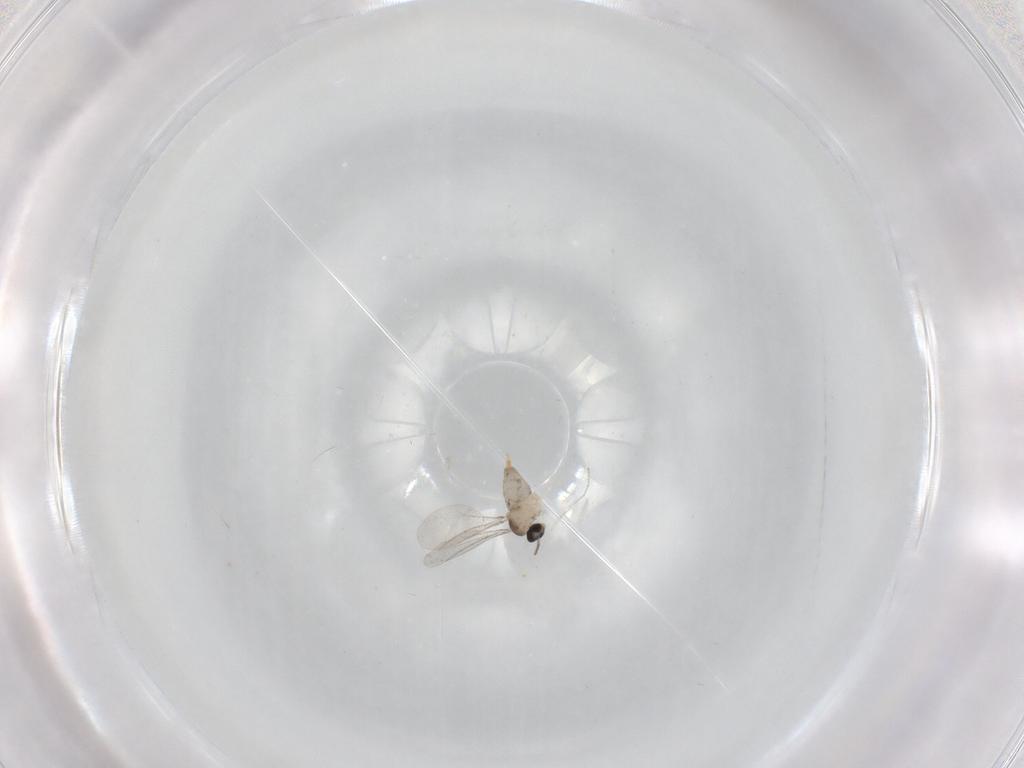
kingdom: Animalia
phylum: Arthropoda
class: Insecta
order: Diptera
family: Cecidomyiidae
